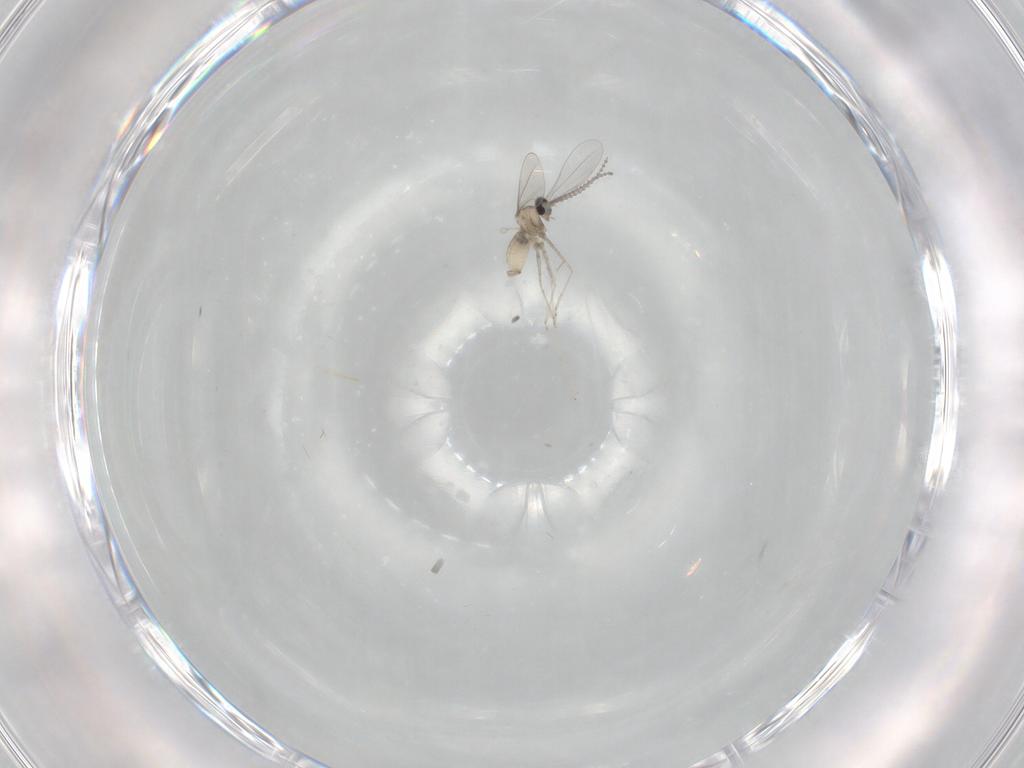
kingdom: Animalia
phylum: Arthropoda
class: Insecta
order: Diptera
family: Cecidomyiidae
